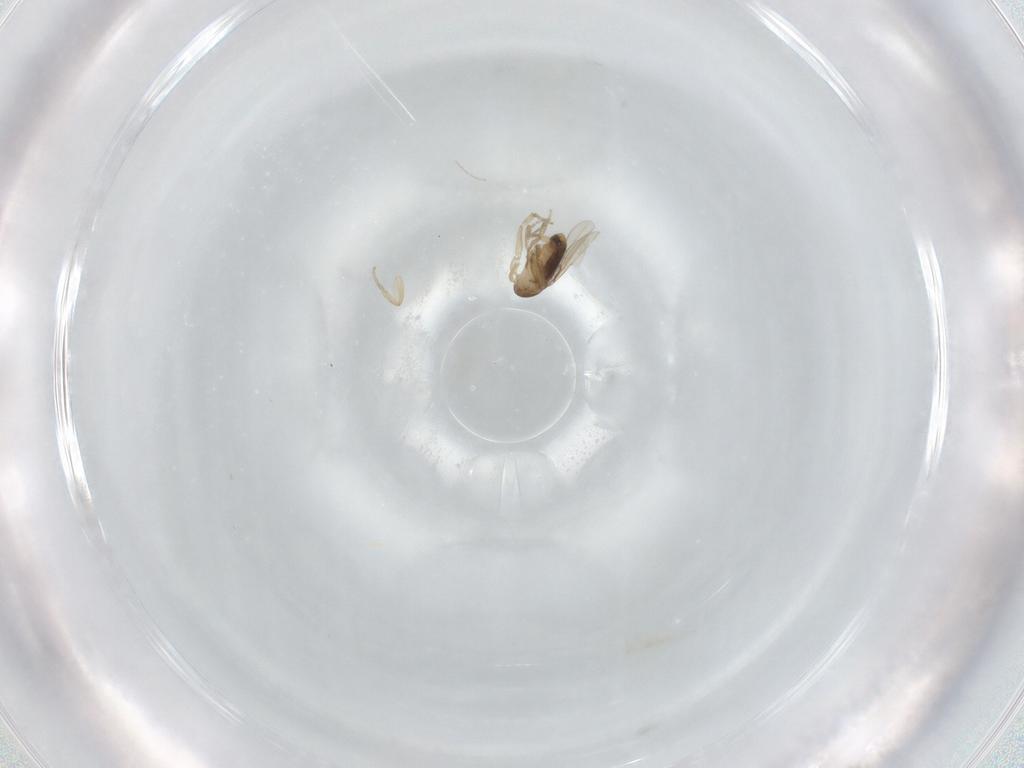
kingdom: Animalia
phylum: Arthropoda
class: Insecta
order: Diptera
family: Phoridae
